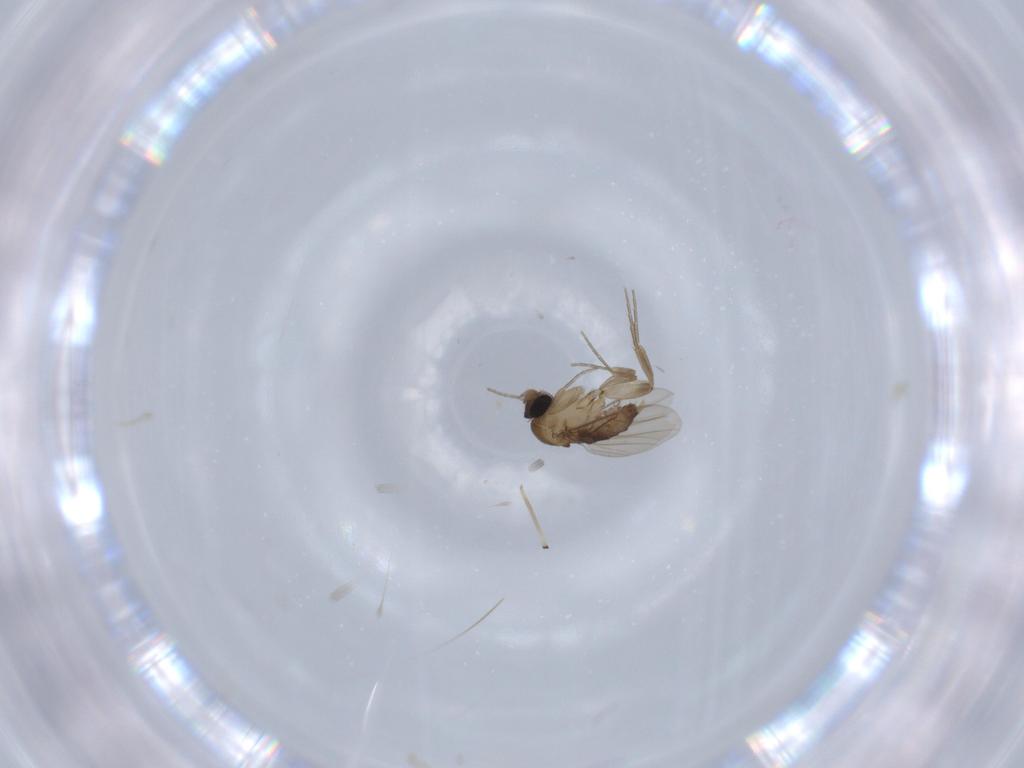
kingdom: Animalia
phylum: Arthropoda
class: Insecta
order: Diptera
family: Chironomidae
